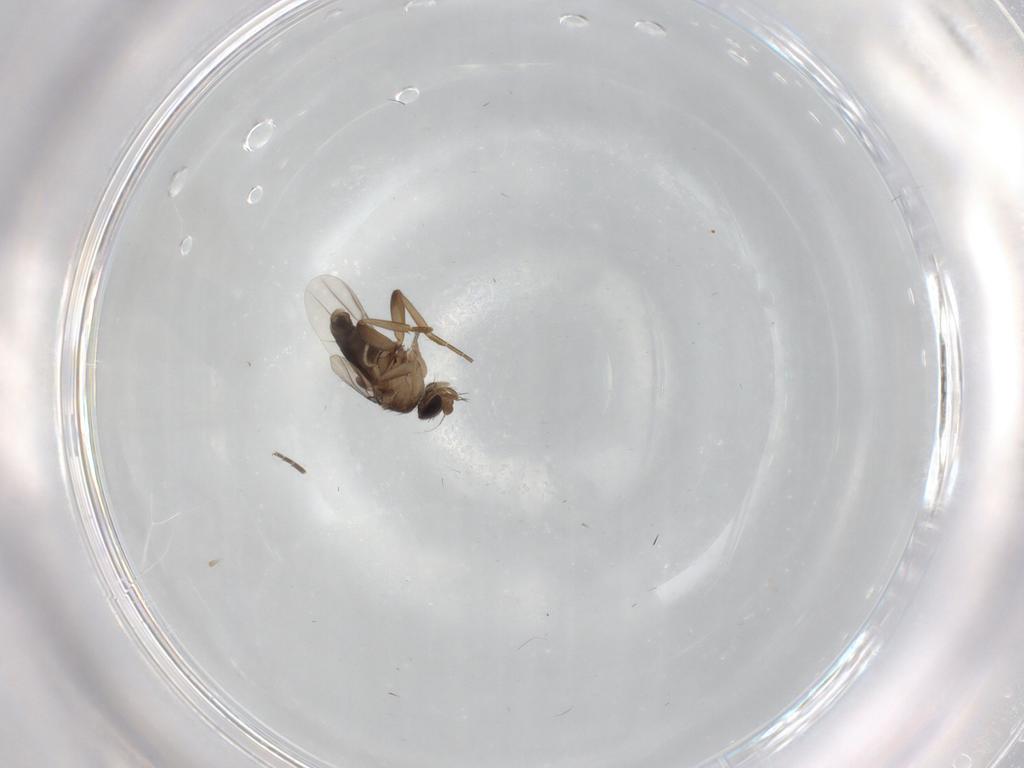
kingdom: Animalia
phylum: Arthropoda
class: Insecta
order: Diptera
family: Phoridae
